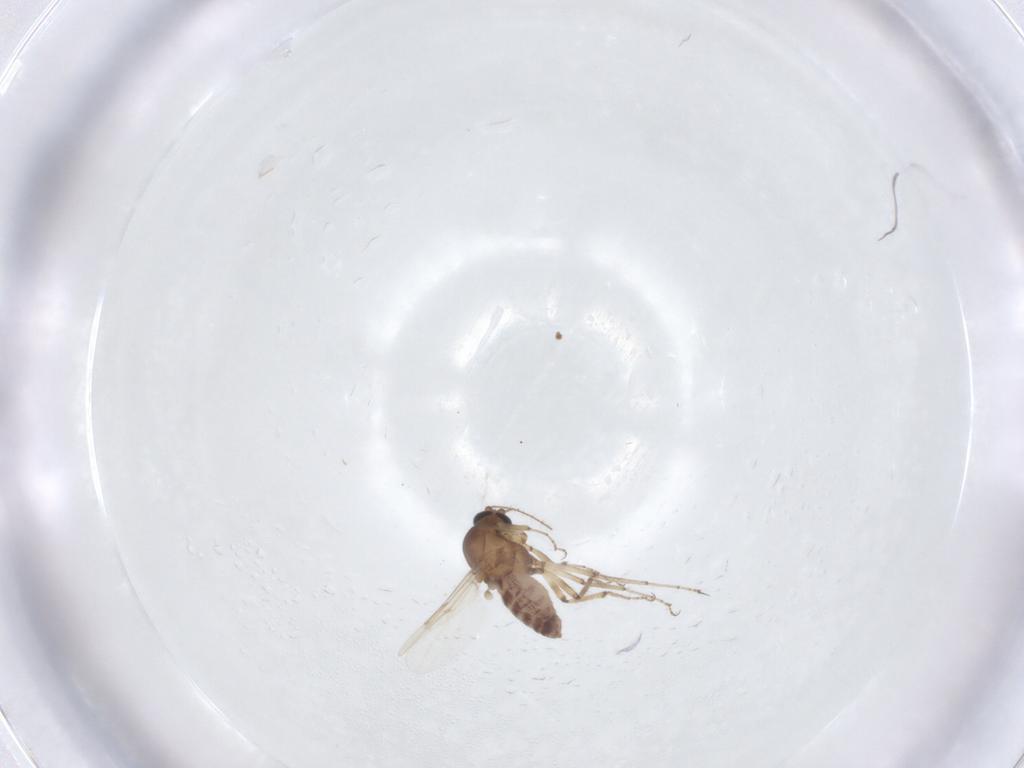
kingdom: Animalia
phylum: Arthropoda
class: Insecta
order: Diptera
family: Ceratopogonidae
